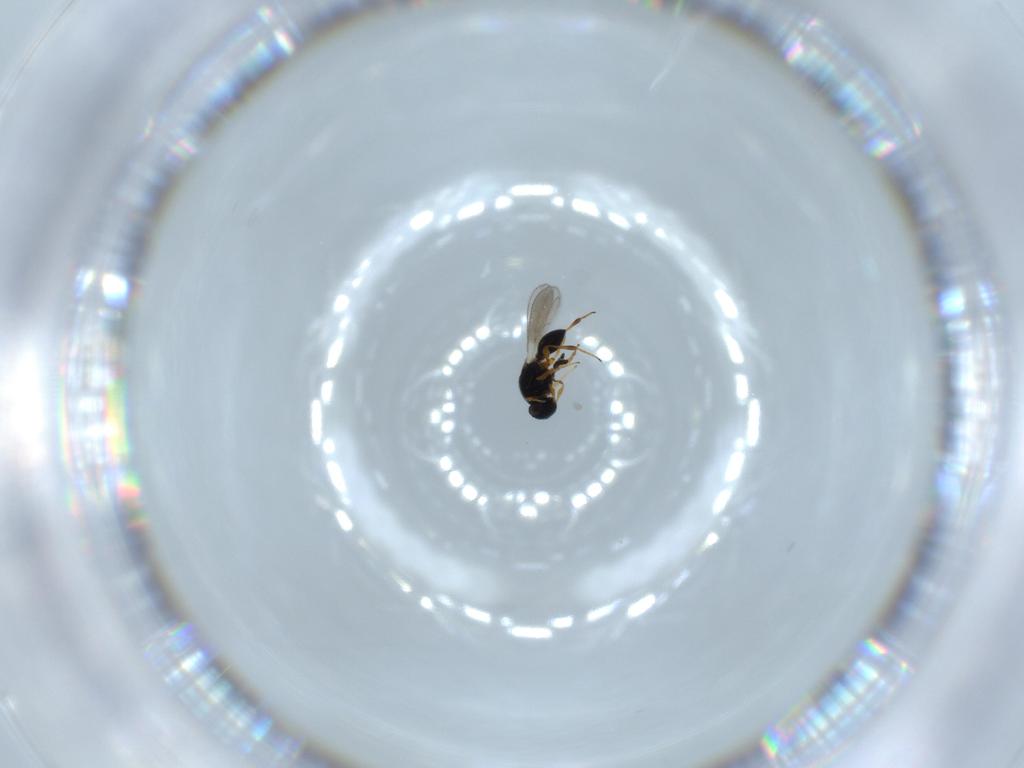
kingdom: Animalia
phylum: Arthropoda
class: Insecta
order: Hymenoptera
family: Platygastridae
